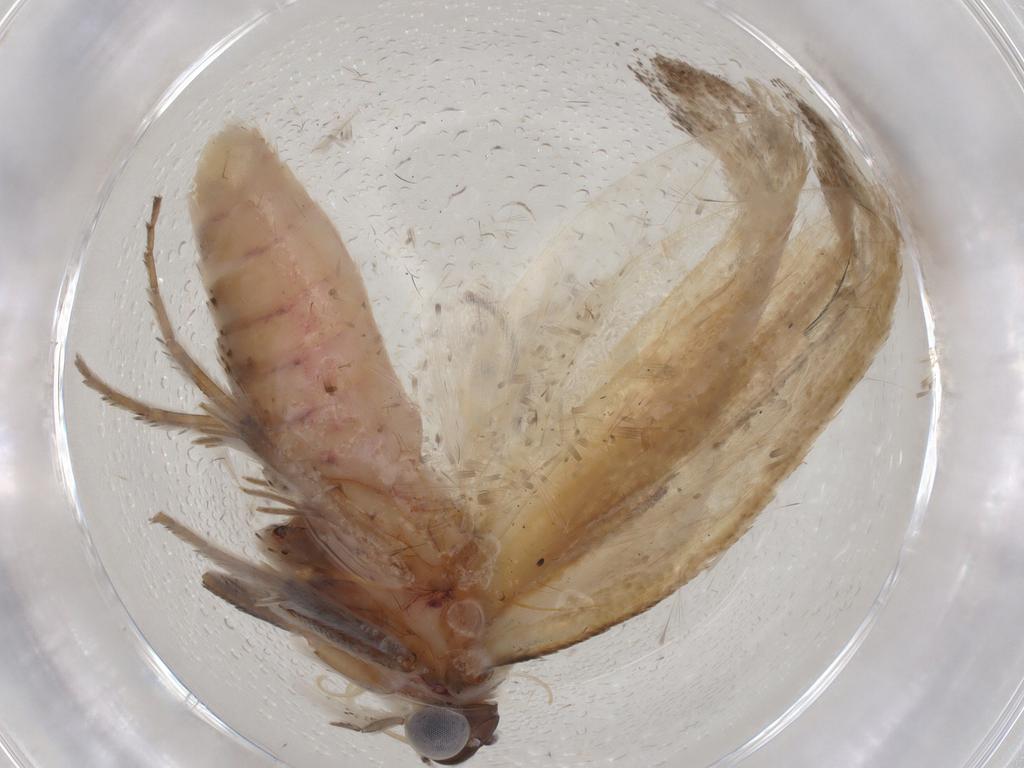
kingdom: Animalia
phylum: Arthropoda
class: Insecta
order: Lepidoptera
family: Ypsolophidae
